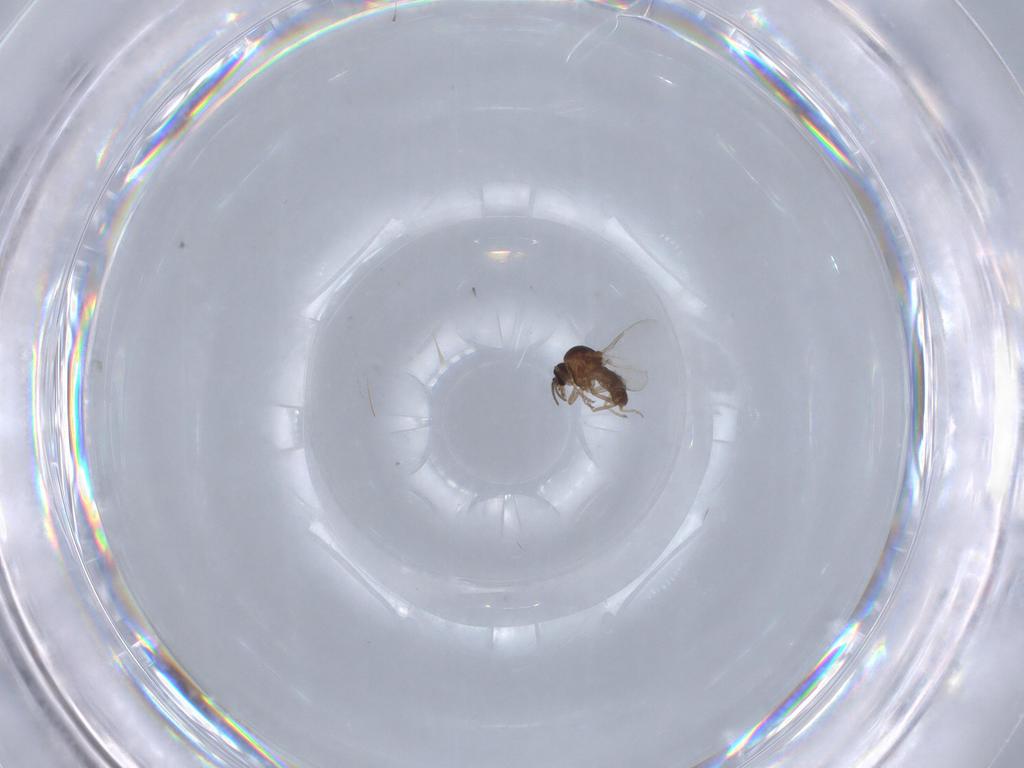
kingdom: Animalia
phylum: Arthropoda
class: Insecta
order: Diptera
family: Ceratopogonidae
